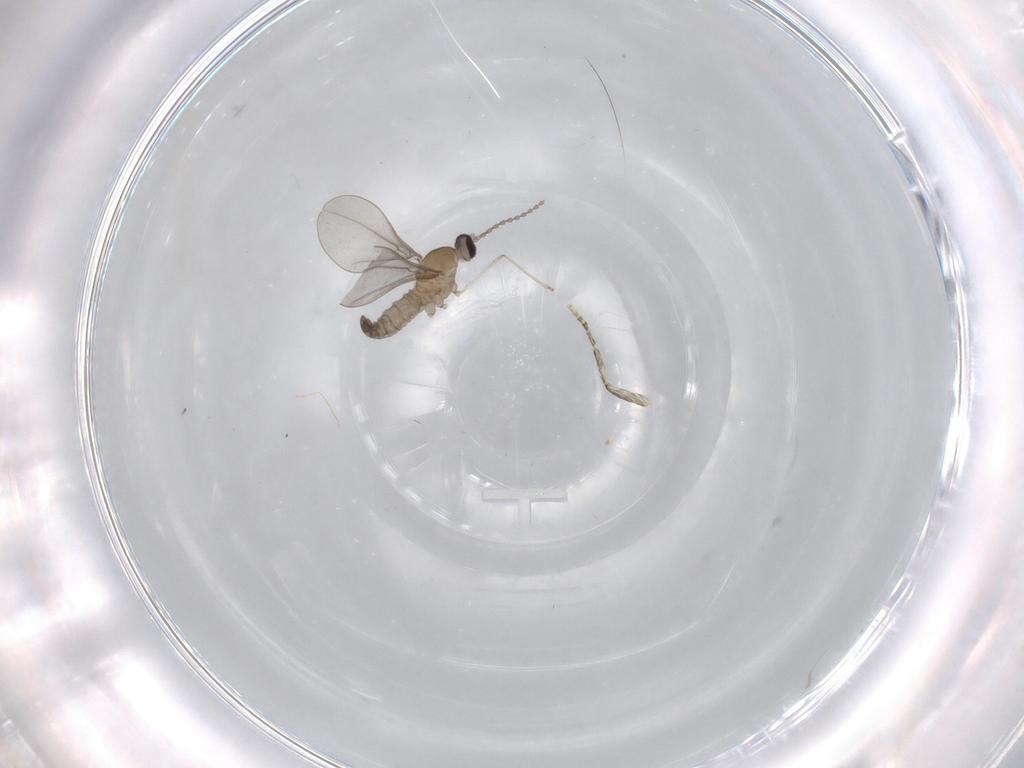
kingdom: Animalia
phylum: Arthropoda
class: Insecta
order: Diptera
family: Cecidomyiidae
